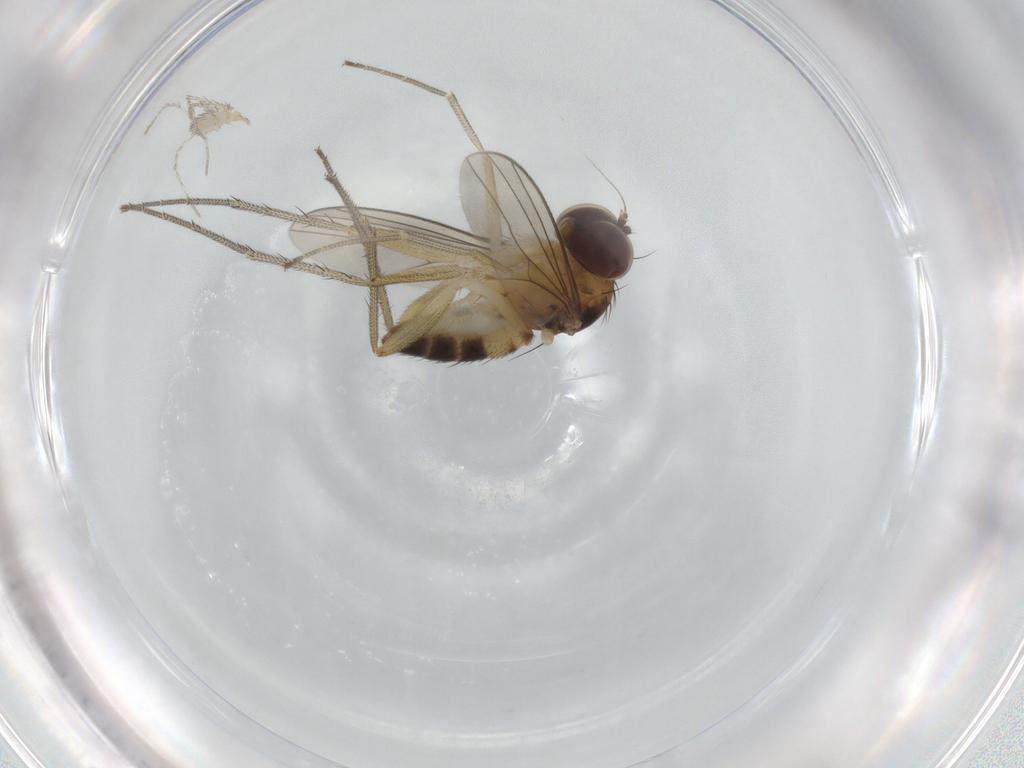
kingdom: Animalia
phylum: Arthropoda
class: Insecta
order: Diptera
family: Dolichopodidae
